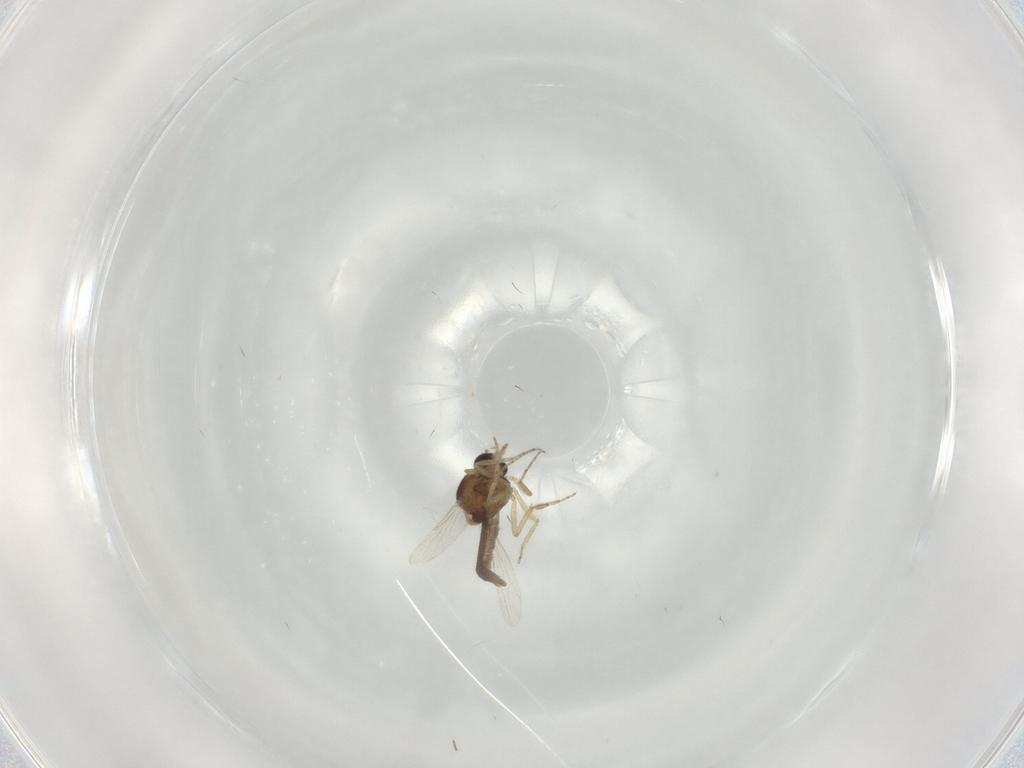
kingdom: Animalia
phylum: Arthropoda
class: Insecta
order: Diptera
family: Ceratopogonidae
